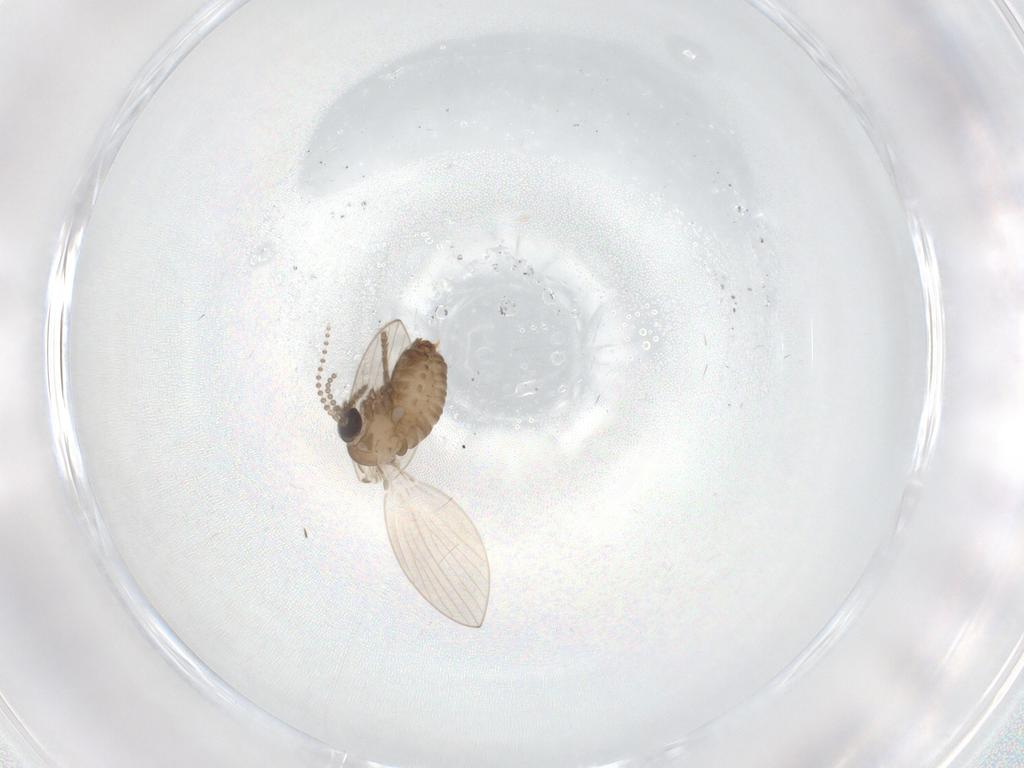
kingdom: Animalia
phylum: Arthropoda
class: Insecta
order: Diptera
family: Psychodidae
